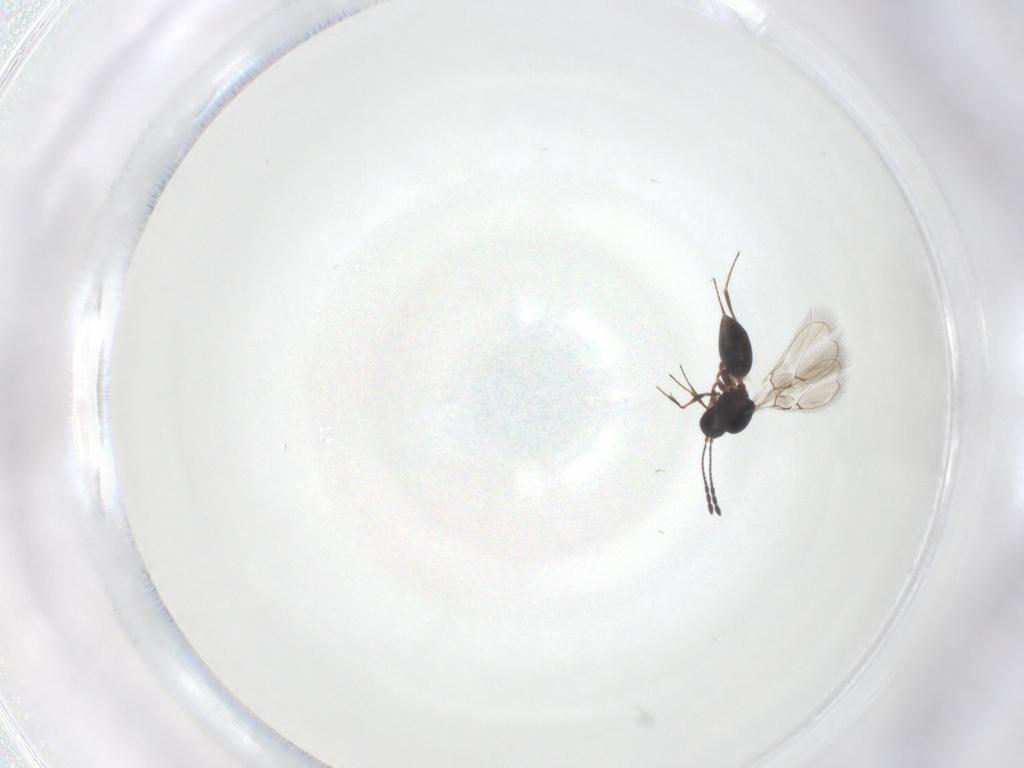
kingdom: Animalia
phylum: Arthropoda
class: Insecta
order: Hymenoptera
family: Figitidae
